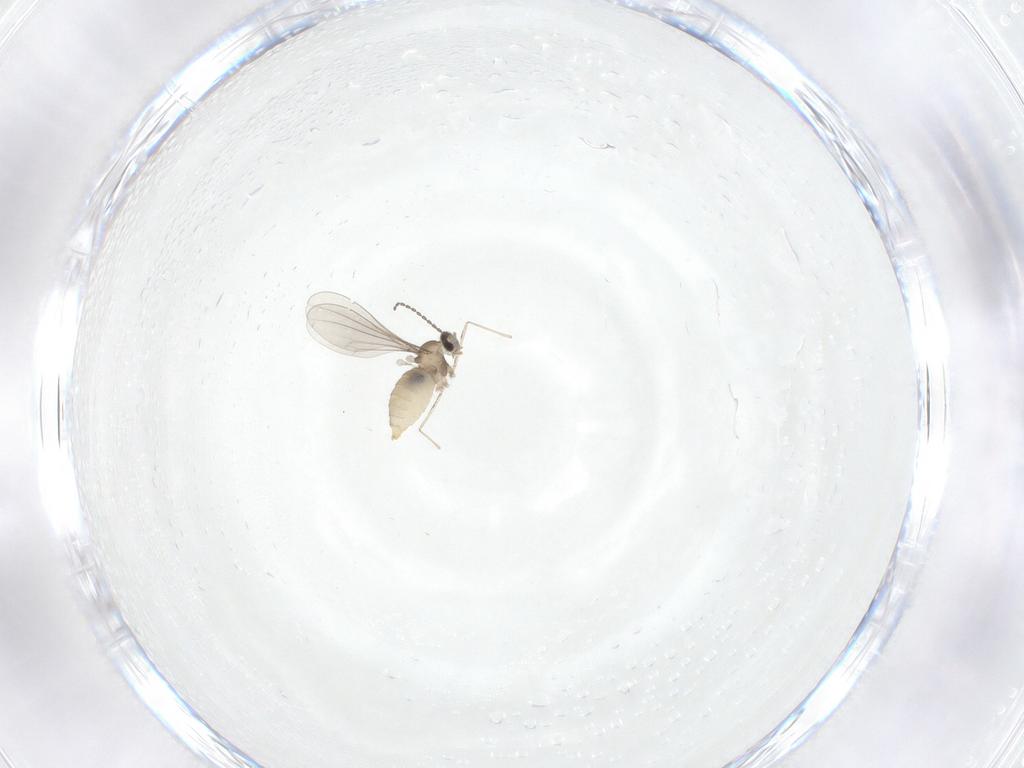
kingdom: Animalia
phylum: Arthropoda
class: Insecta
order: Diptera
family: Cecidomyiidae
